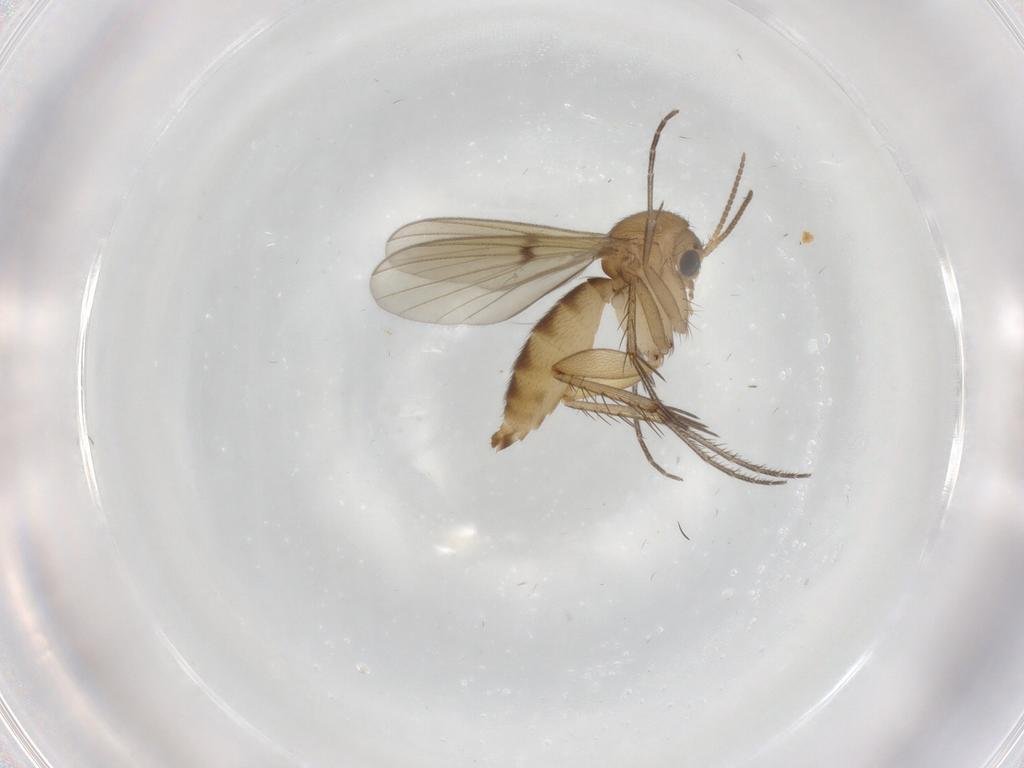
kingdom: Animalia
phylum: Arthropoda
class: Insecta
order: Diptera
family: Mycetophilidae
